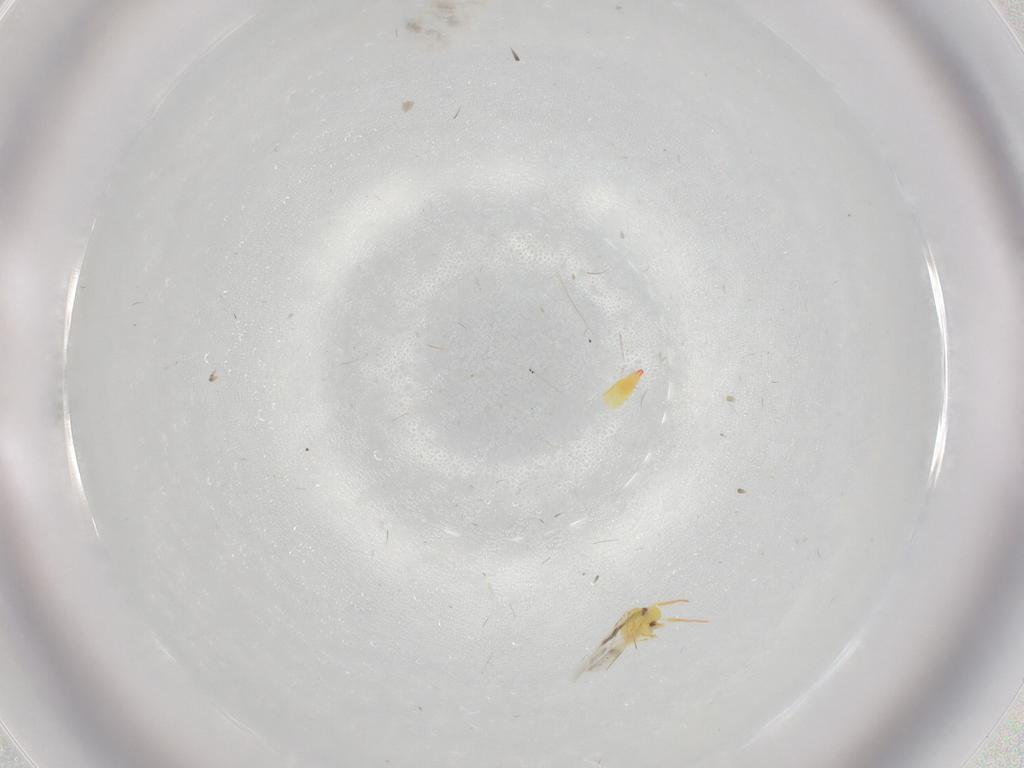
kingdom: Animalia
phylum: Arthropoda
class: Insecta
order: Hemiptera
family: Aleyrodidae
